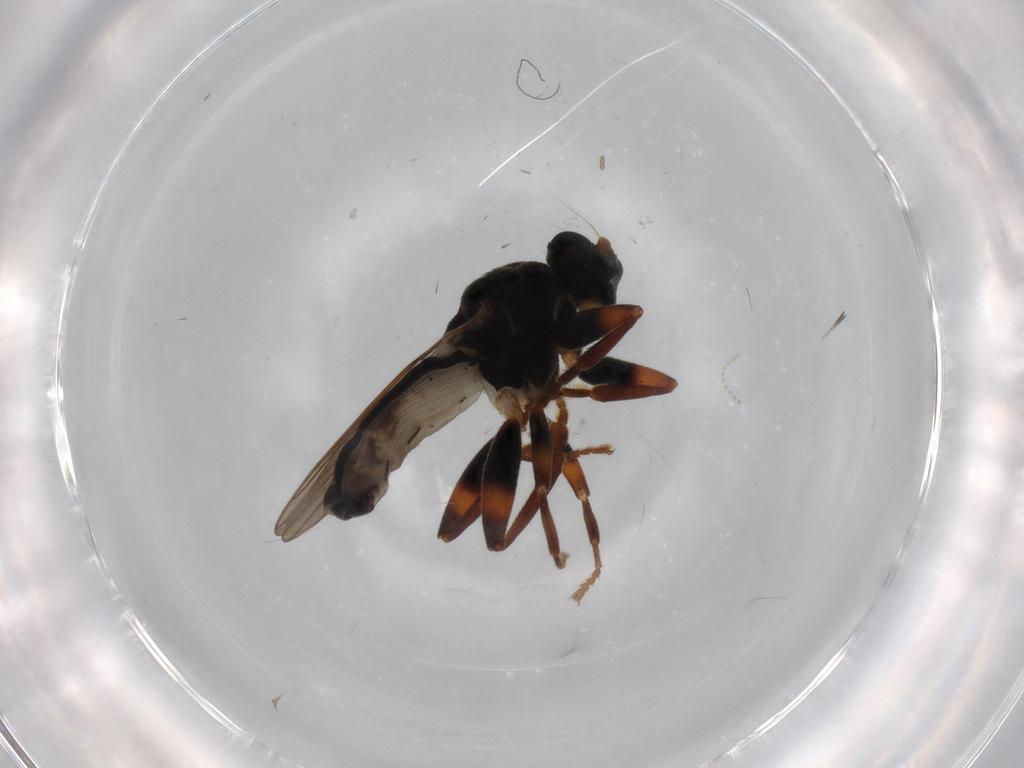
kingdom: Animalia
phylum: Arthropoda
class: Insecta
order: Diptera
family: Sphaeroceridae
